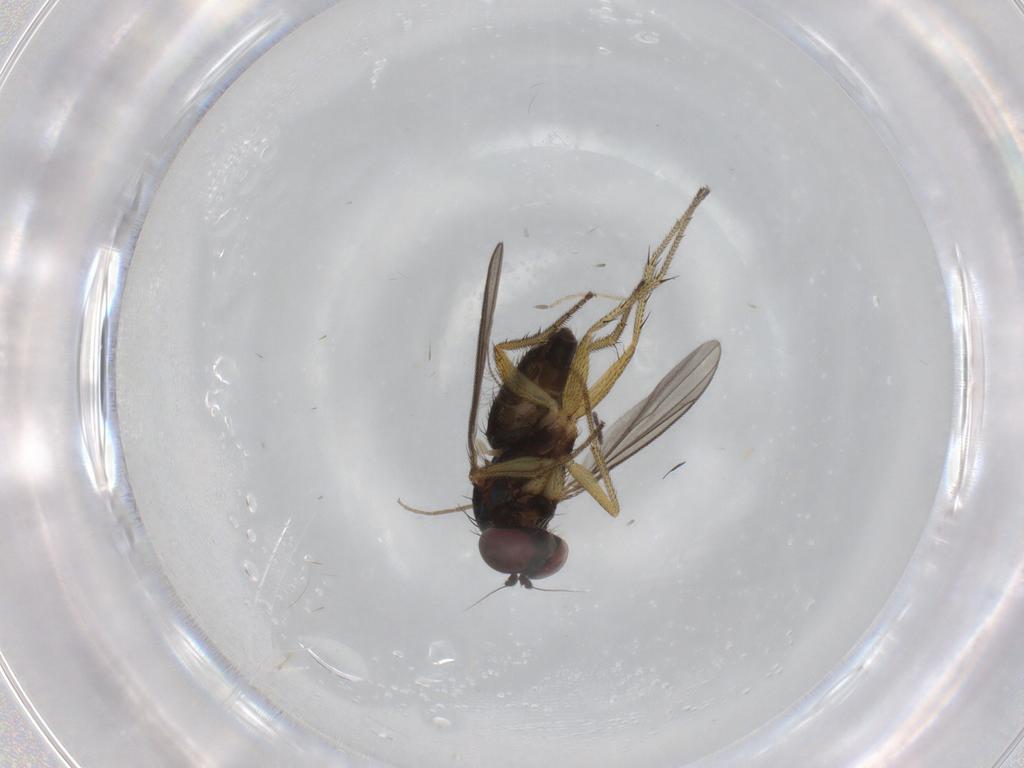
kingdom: Animalia
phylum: Arthropoda
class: Insecta
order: Diptera
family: Dolichopodidae
